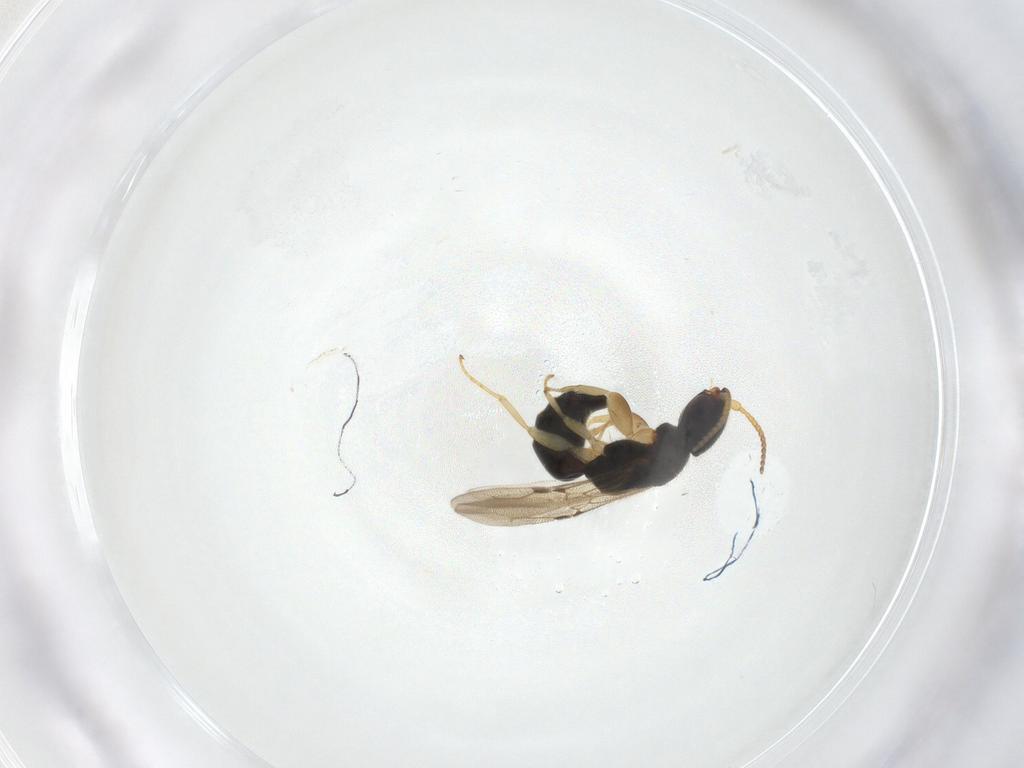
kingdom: Animalia
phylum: Arthropoda
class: Insecta
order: Hymenoptera
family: Bethylidae
